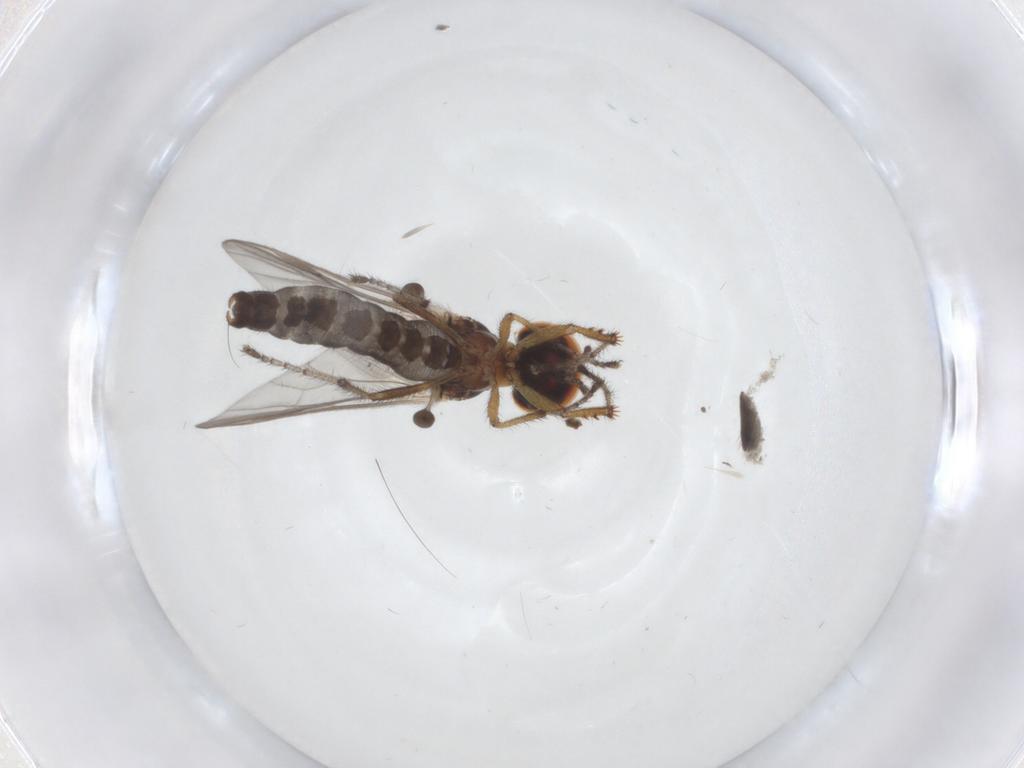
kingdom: Animalia
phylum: Arthropoda
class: Insecta
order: Diptera
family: Bibionidae
